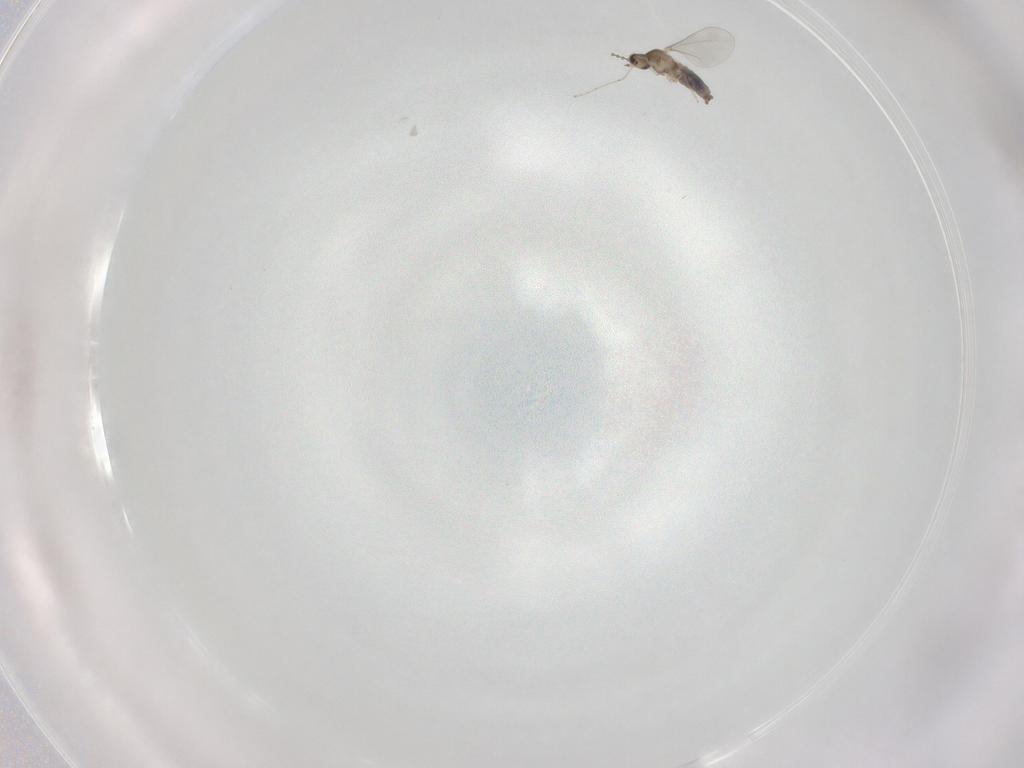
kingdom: Animalia
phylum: Arthropoda
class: Insecta
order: Diptera
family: Cecidomyiidae
